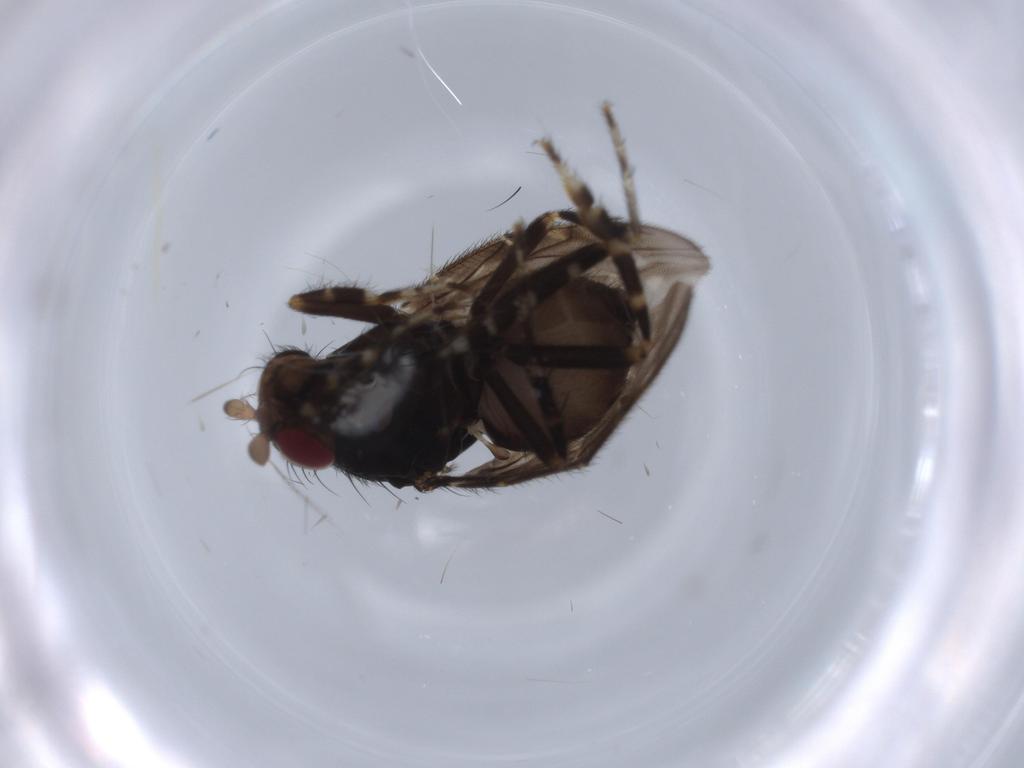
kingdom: Animalia
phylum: Arthropoda
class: Insecta
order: Diptera
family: Sphaeroceridae
